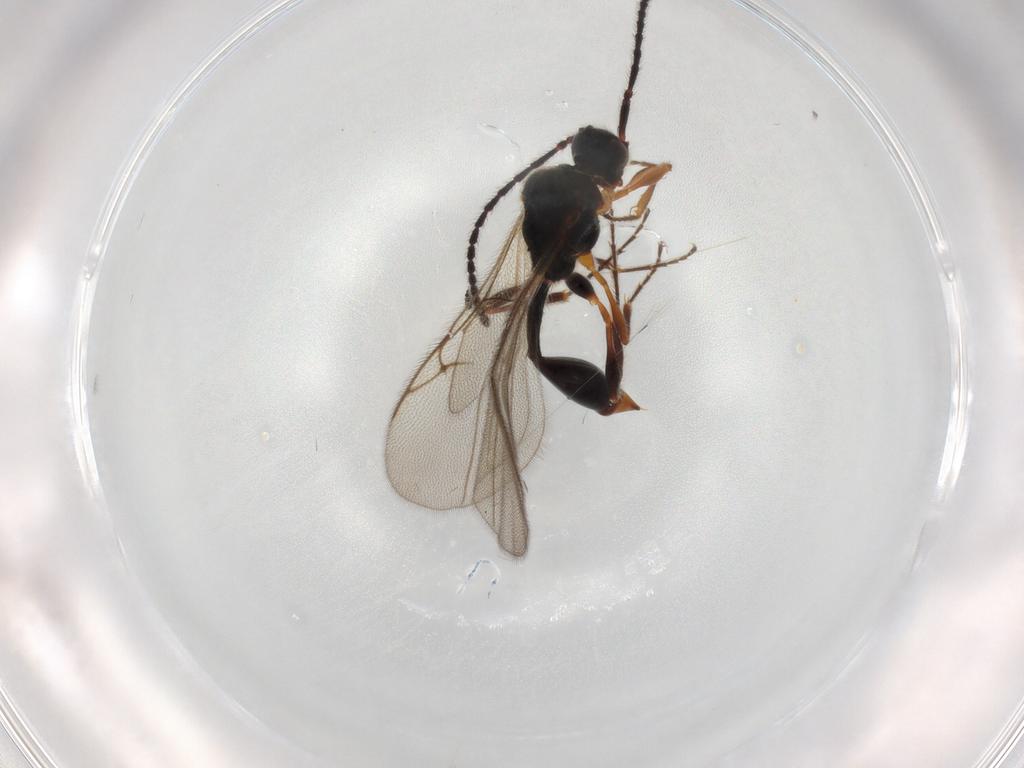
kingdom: Animalia
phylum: Arthropoda
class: Insecta
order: Hymenoptera
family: Diapriidae
